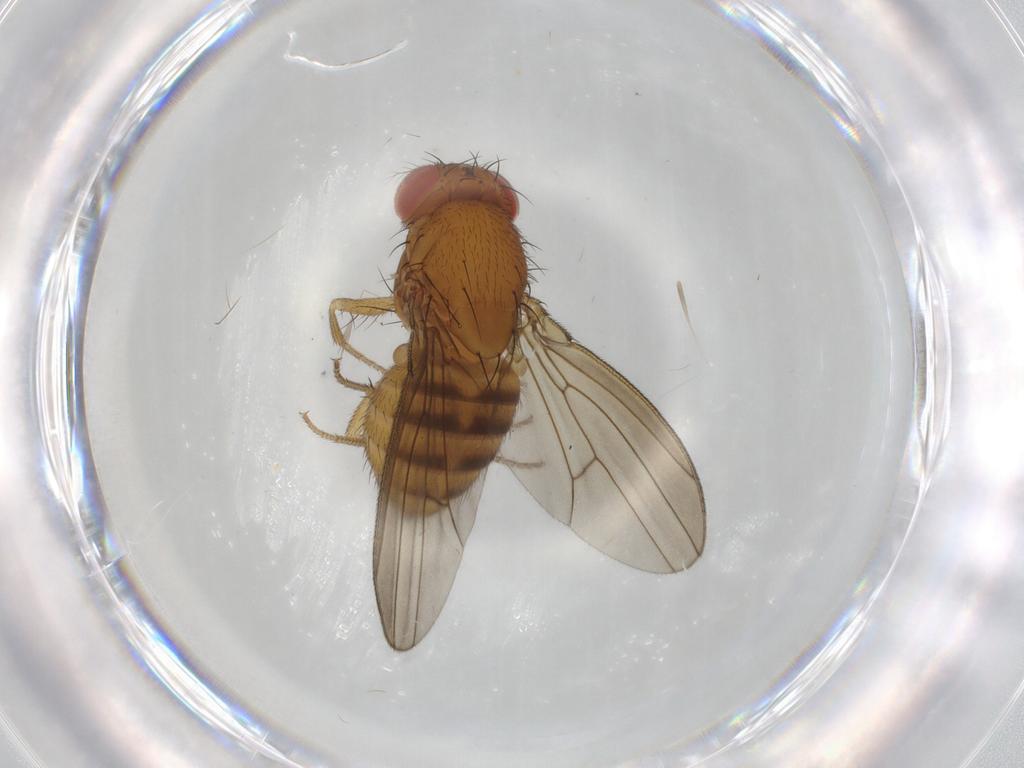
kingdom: Animalia
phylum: Arthropoda
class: Insecta
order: Diptera
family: Drosophilidae
